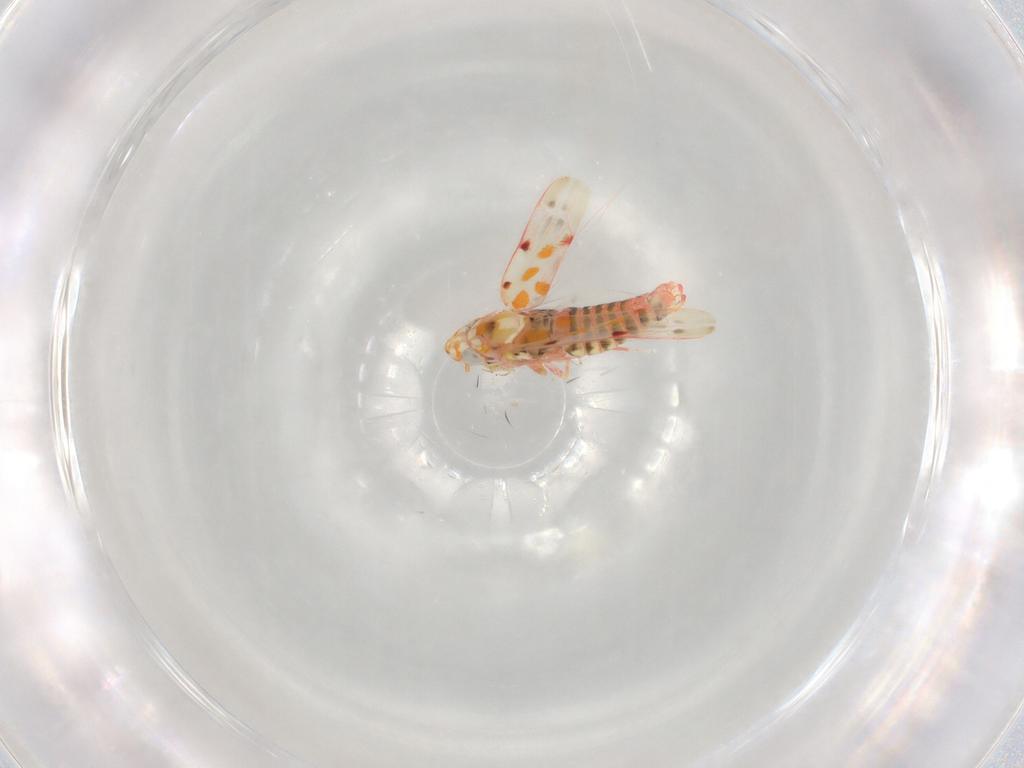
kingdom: Animalia
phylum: Arthropoda
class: Insecta
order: Hemiptera
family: Cicadellidae
